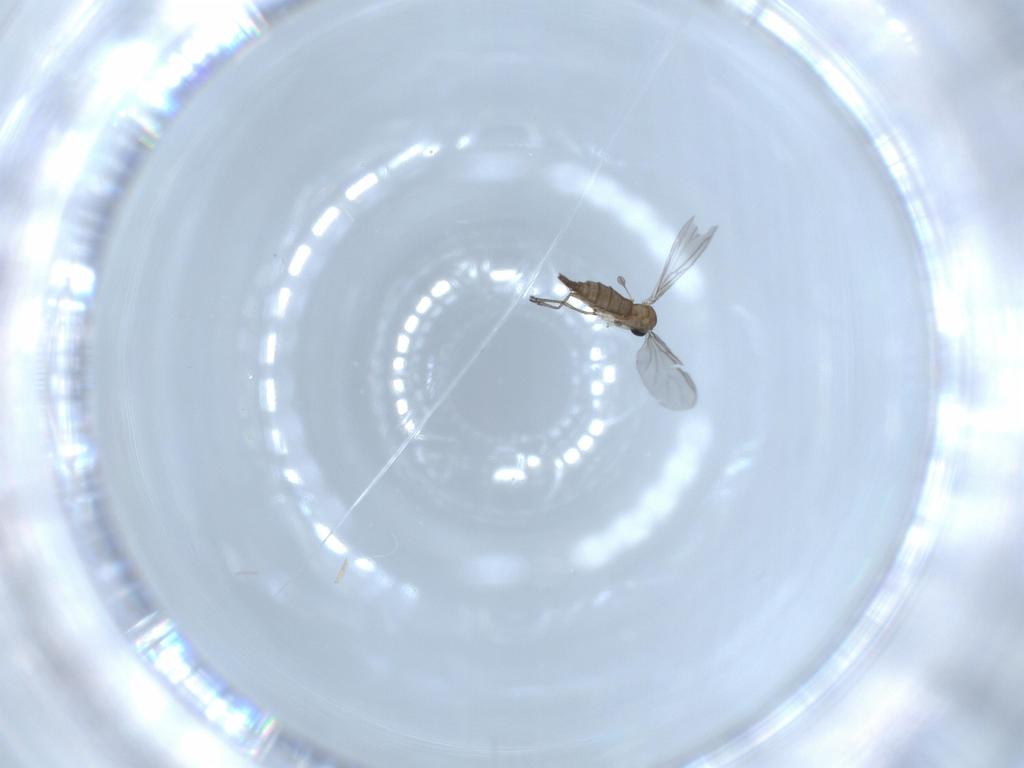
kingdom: Animalia
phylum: Arthropoda
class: Insecta
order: Diptera
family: Sciaridae
